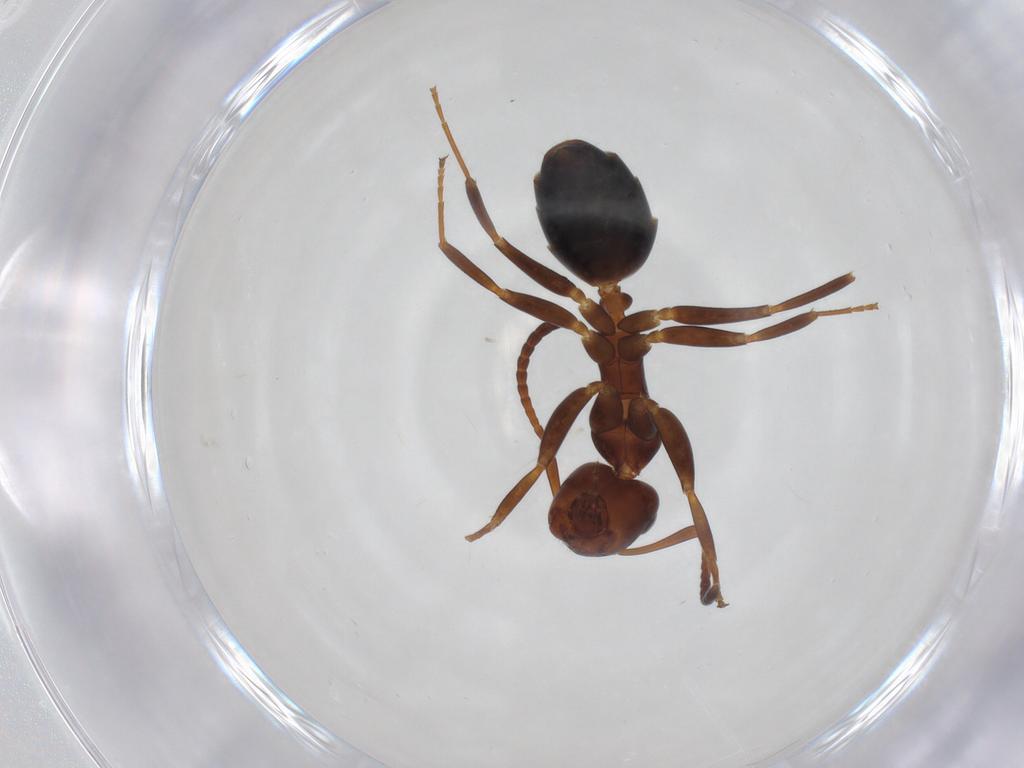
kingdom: Animalia
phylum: Arthropoda
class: Insecta
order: Hymenoptera
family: Formicidae
